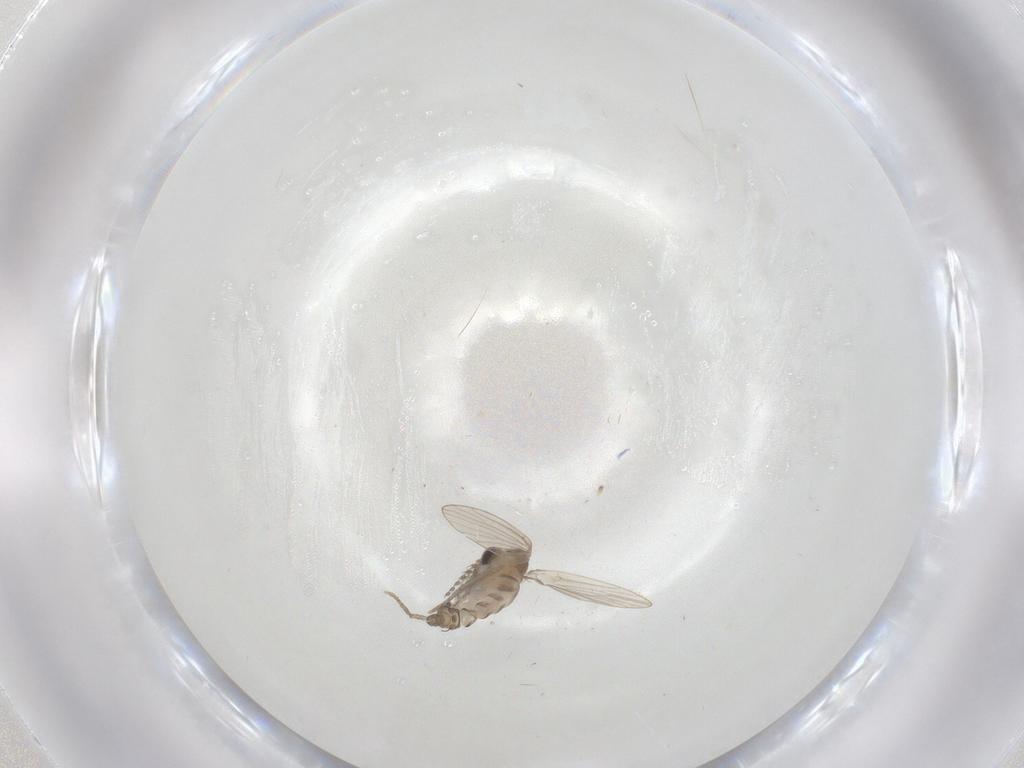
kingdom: Animalia
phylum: Arthropoda
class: Insecta
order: Diptera
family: Psychodidae
